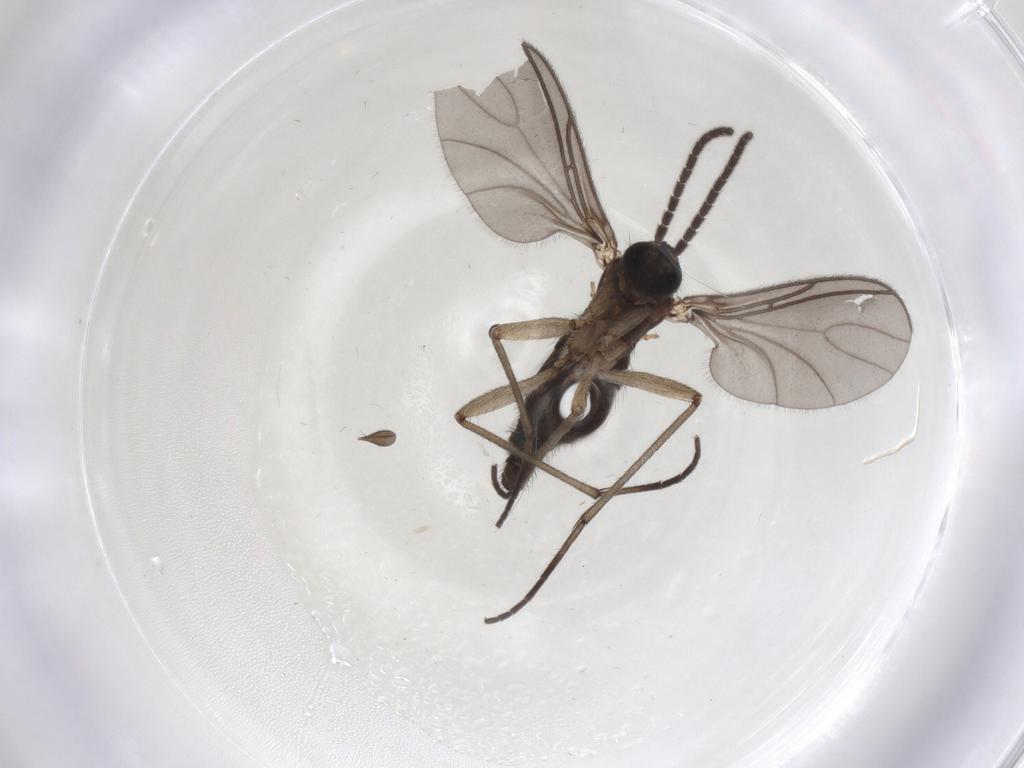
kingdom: Animalia
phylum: Arthropoda
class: Insecta
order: Diptera
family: Sciaridae
